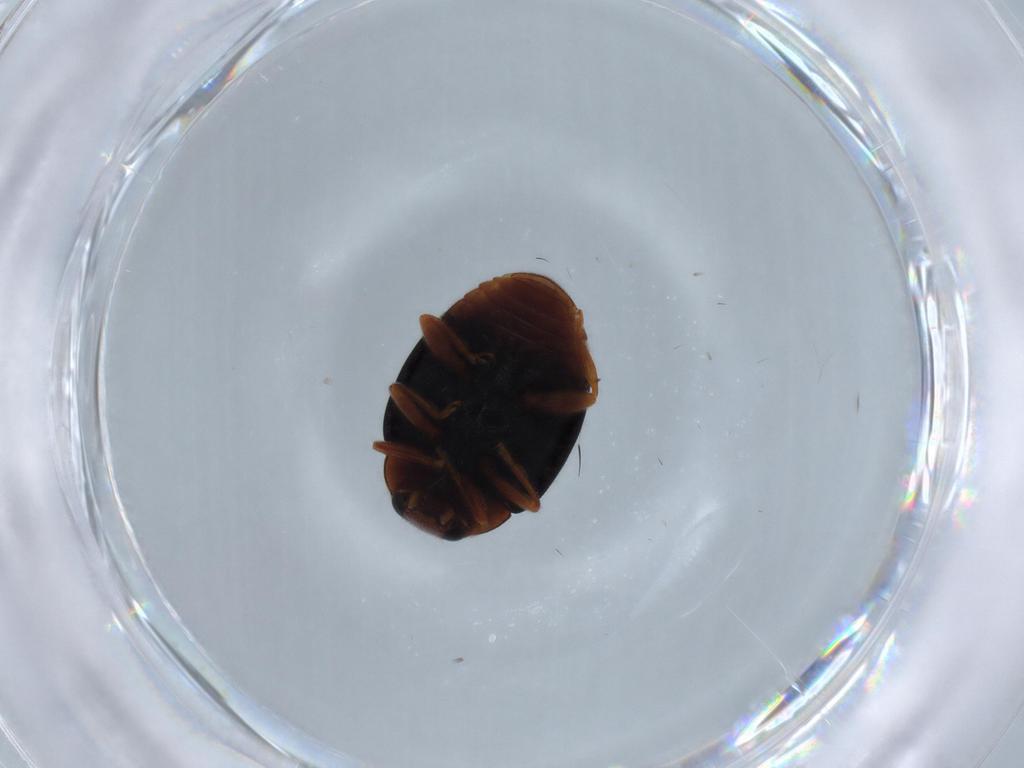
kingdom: Animalia
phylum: Arthropoda
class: Insecta
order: Coleoptera
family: Coccinellidae
